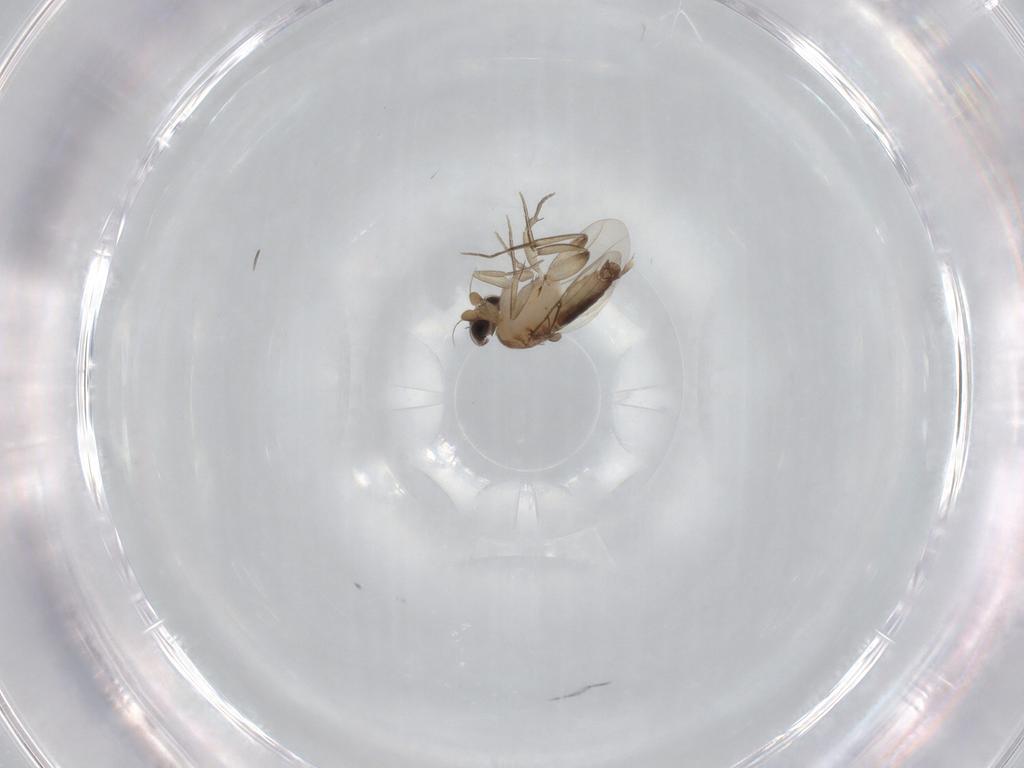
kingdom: Animalia
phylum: Arthropoda
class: Insecta
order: Diptera
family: Phoridae
